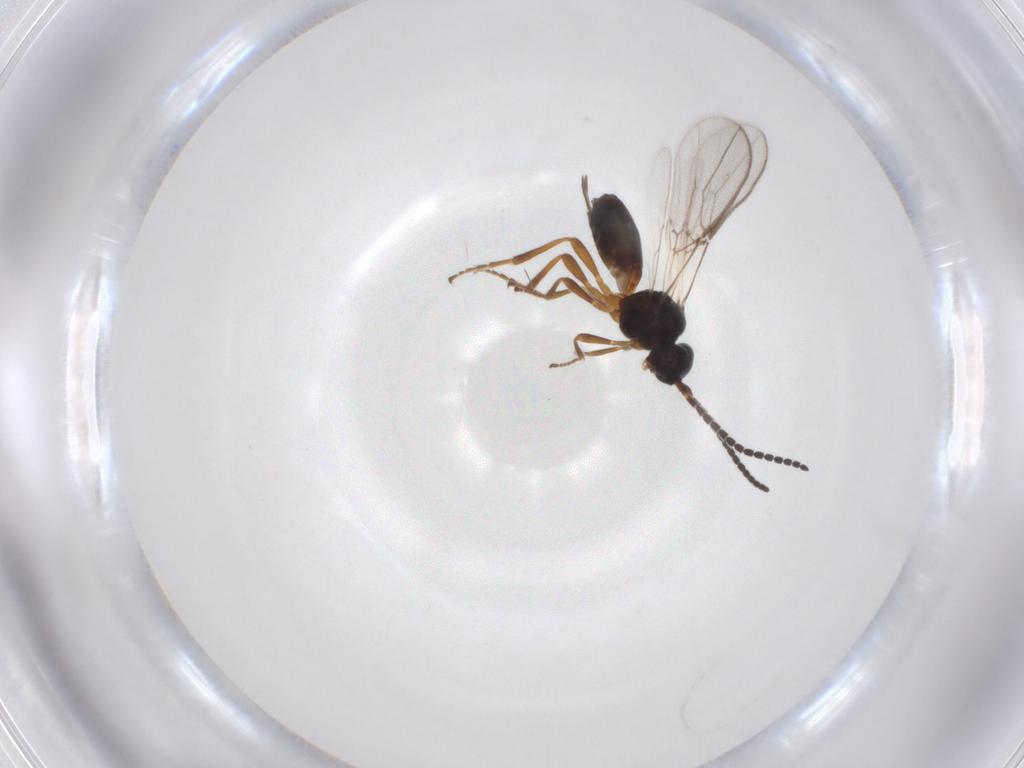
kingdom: Animalia
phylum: Arthropoda
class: Insecta
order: Hymenoptera
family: Braconidae
